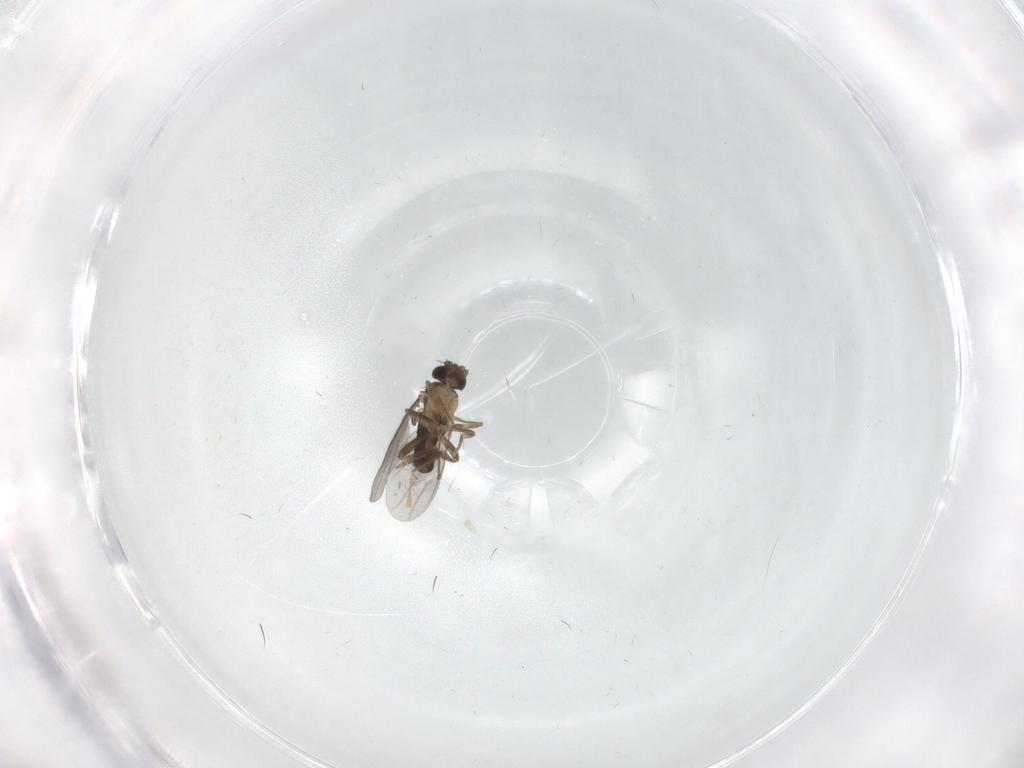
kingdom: Animalia
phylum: Arthropoda
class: Insecta
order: Diptera
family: Cecidomyiidae
